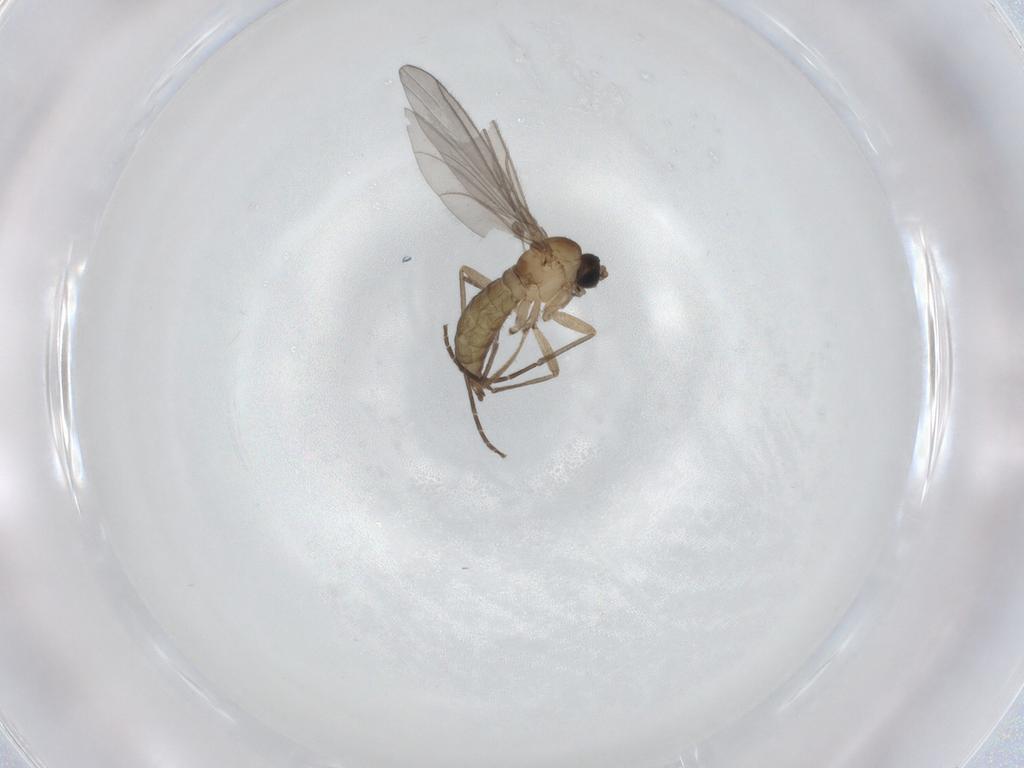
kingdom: Animalia
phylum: Arthropoda
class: Insecta
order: Diptera
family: Sciaridae
